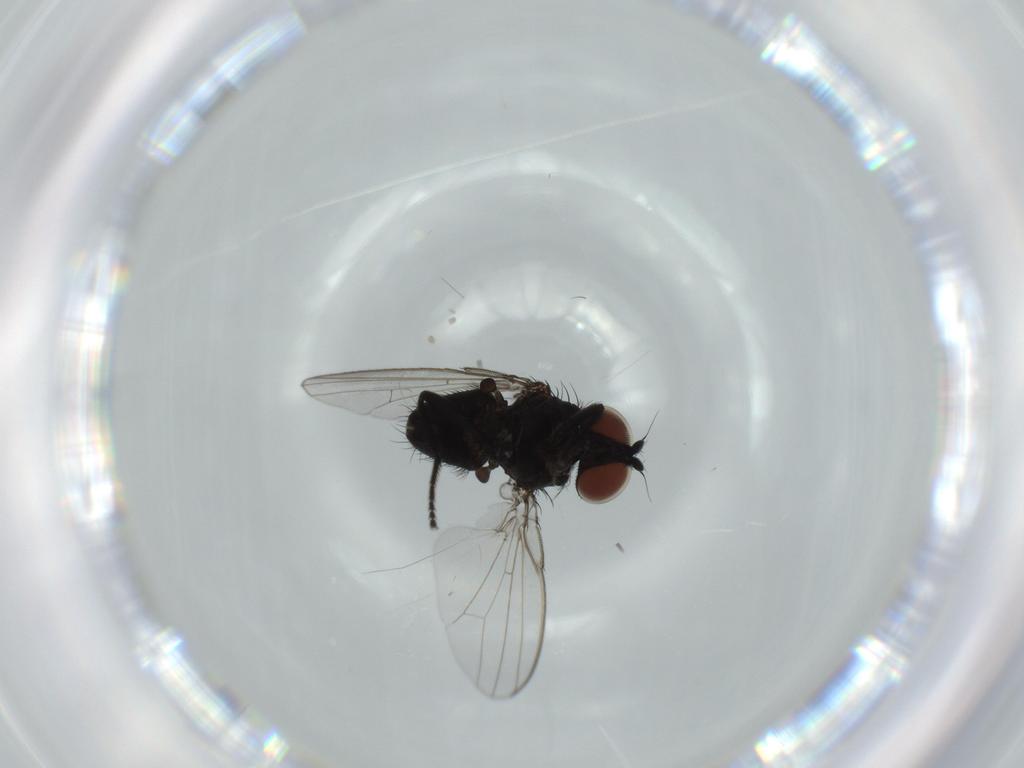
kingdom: Animalia
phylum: Arthropoda
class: Insecta
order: Diptera
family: Milichiidae
